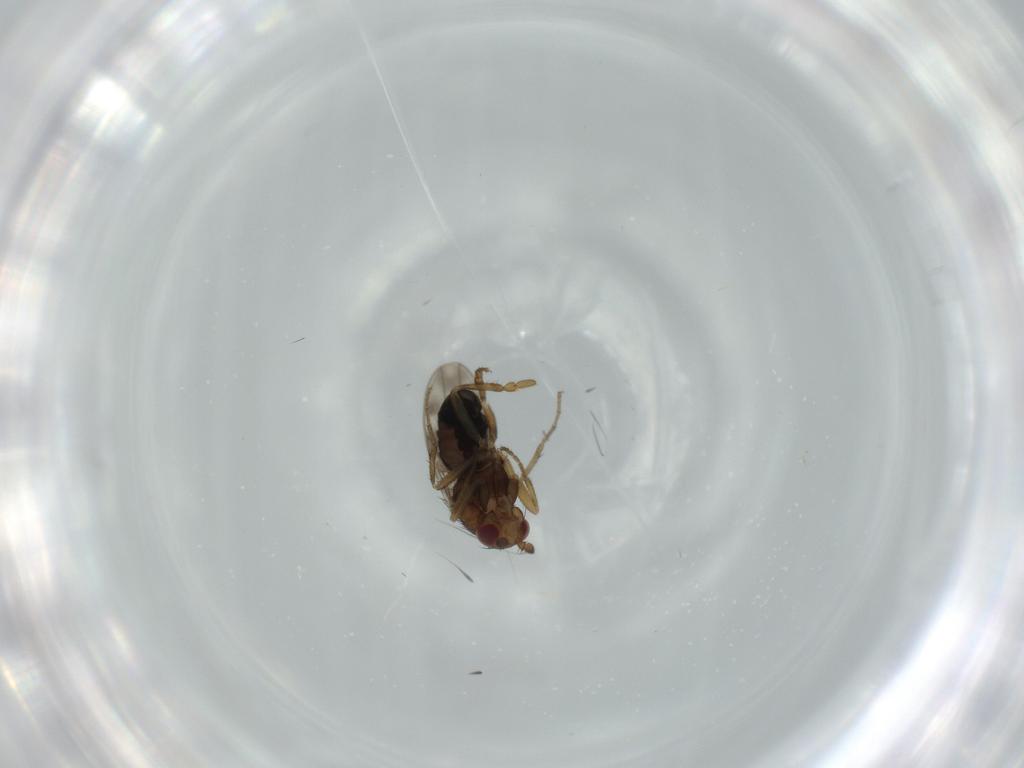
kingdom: Animalia
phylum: Arthropoda
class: Insecta
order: Diptera
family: Sphaeroceridae
